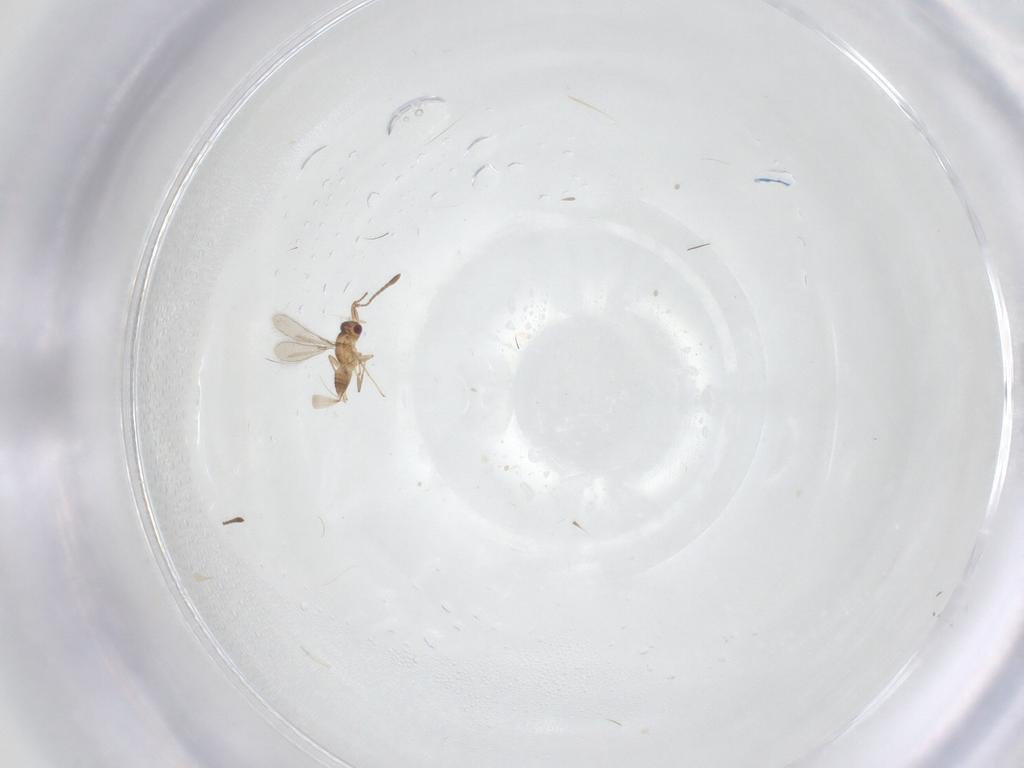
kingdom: Animalia
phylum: Arthropoda
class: Insecta
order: Hymenoptera
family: Mymaridae
